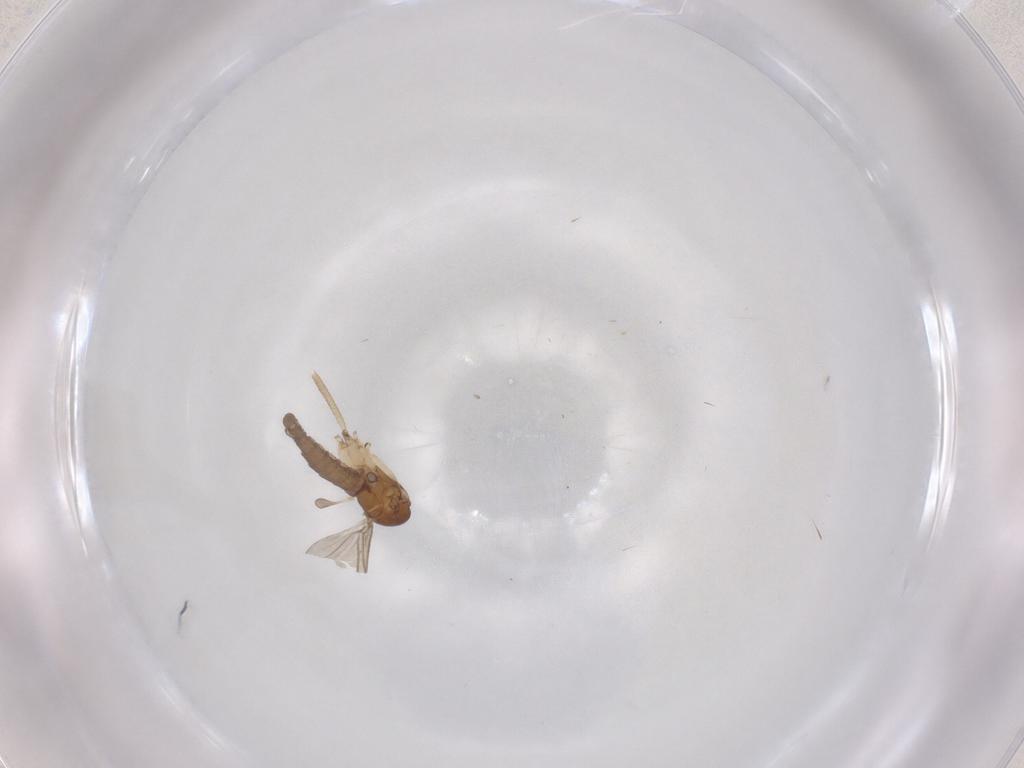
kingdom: Animalia
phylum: Arthropoda
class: Insecta
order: Diptera
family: Sciaridae
